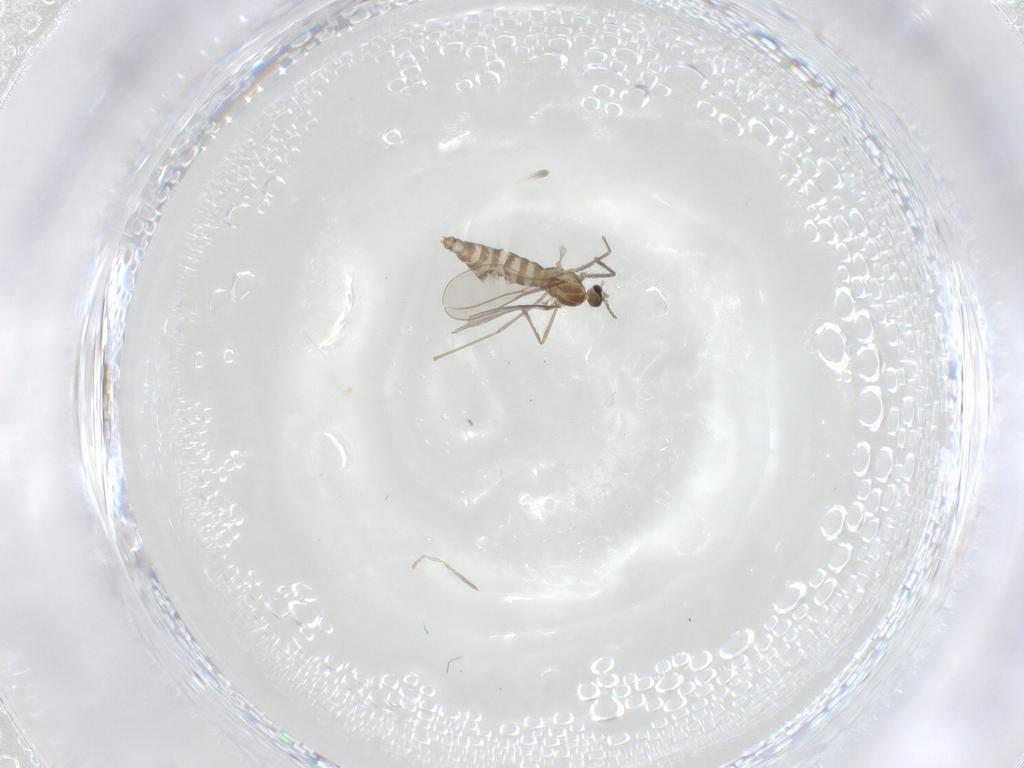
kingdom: Animalia
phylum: Arthropoda
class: Insecta
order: Diptera
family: Cecidomyiidae
